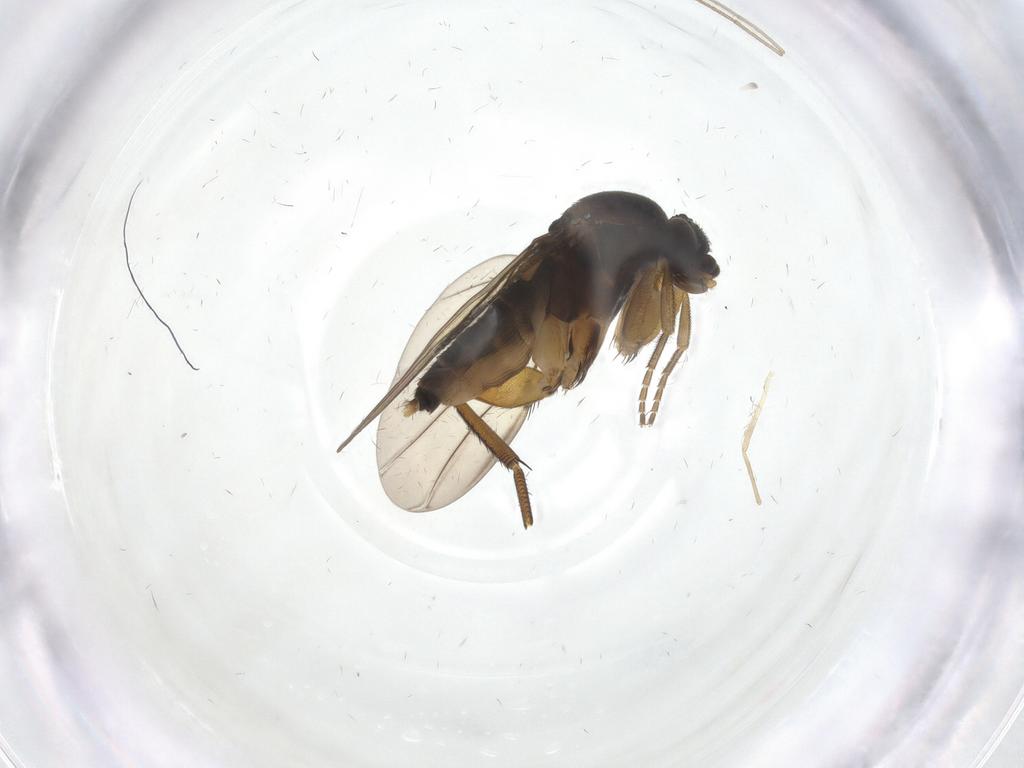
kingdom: Animalia
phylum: Arthropoda
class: Insecta
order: Diptera
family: Phoridae
